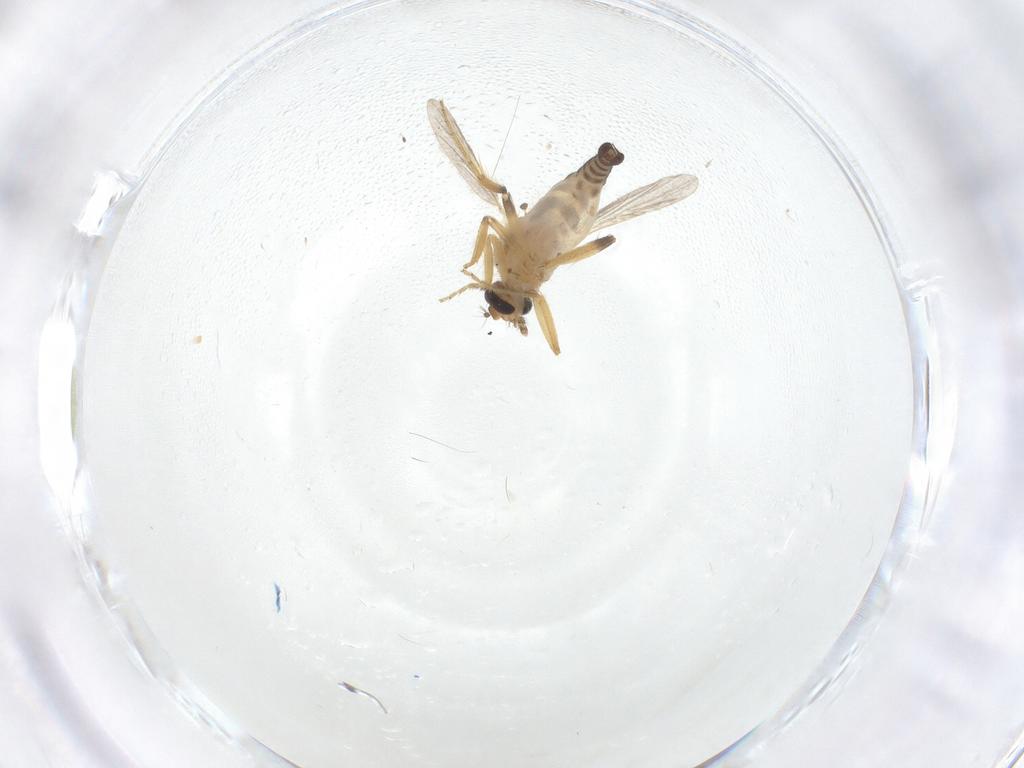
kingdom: Animalia
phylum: Arthropoda
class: Insecta
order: Diptera
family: Ceratopogonidae
